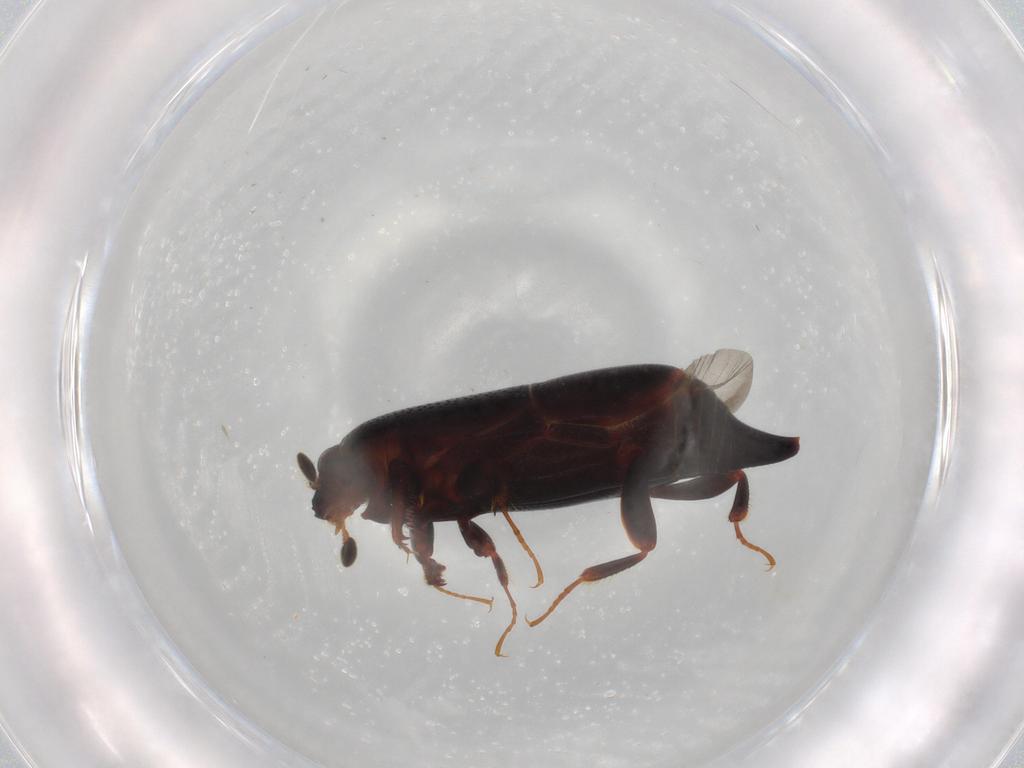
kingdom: Animalia
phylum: Arthropoda
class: Insecta
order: Coleoptera
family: Histeridae
